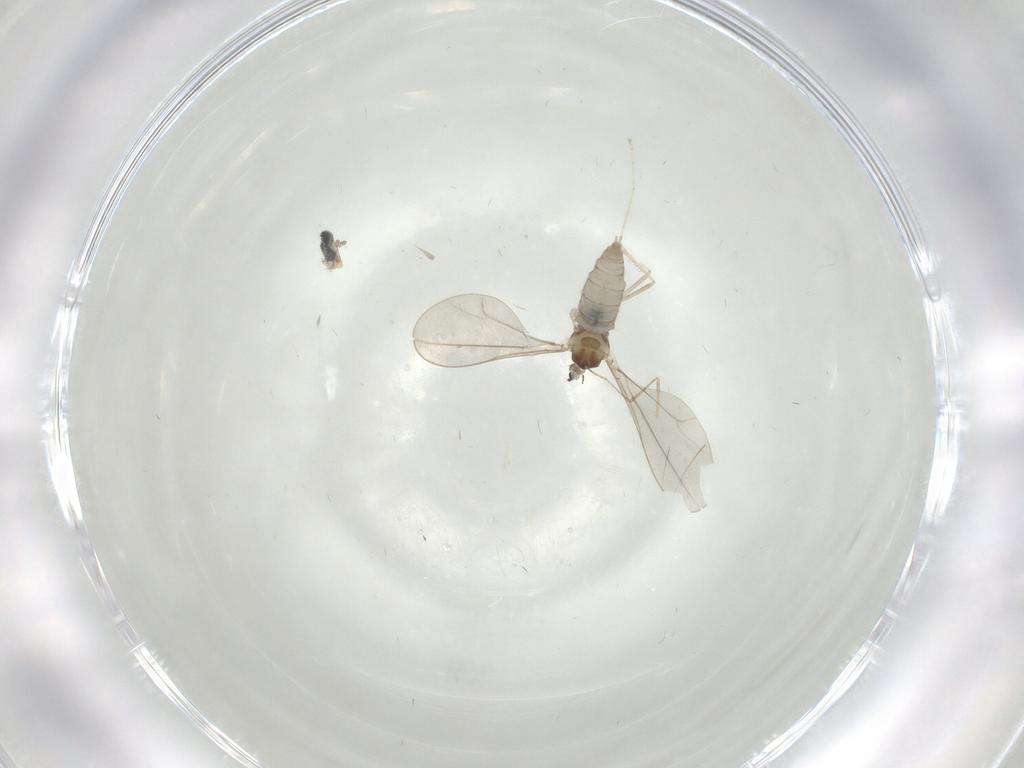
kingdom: Animalia
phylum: Arthropoda
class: Insecta
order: Diptera
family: Cecidomyiidae
